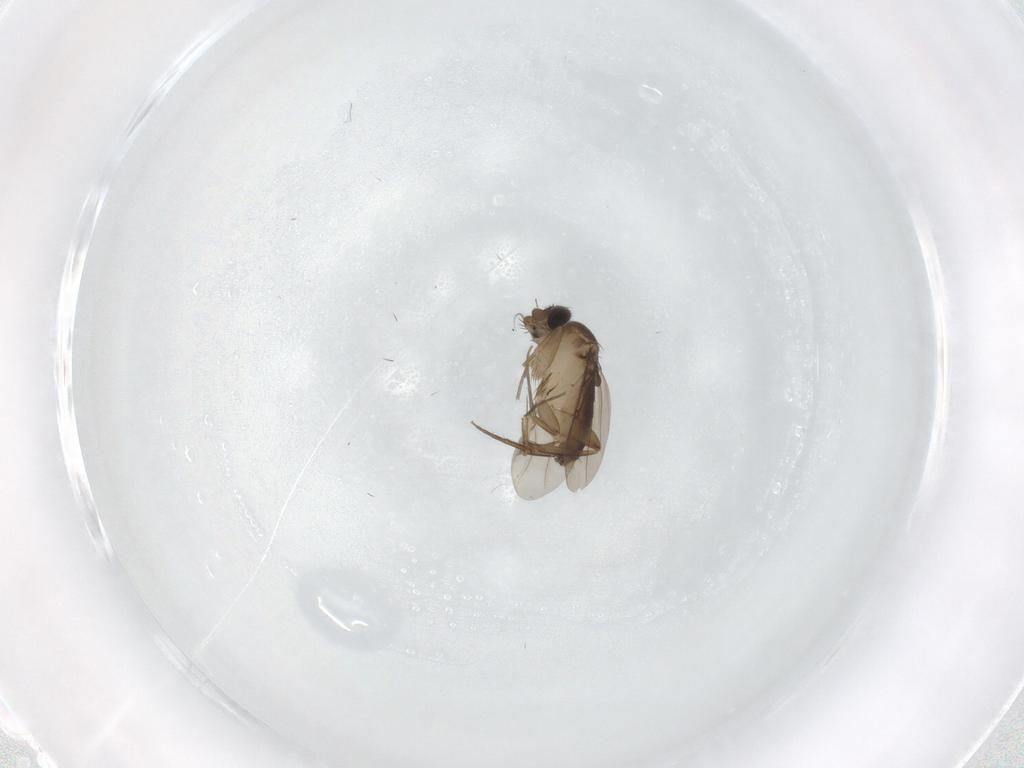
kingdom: Animalia
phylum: Arthropoda
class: Insecta
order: Diptera
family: Phoridae
